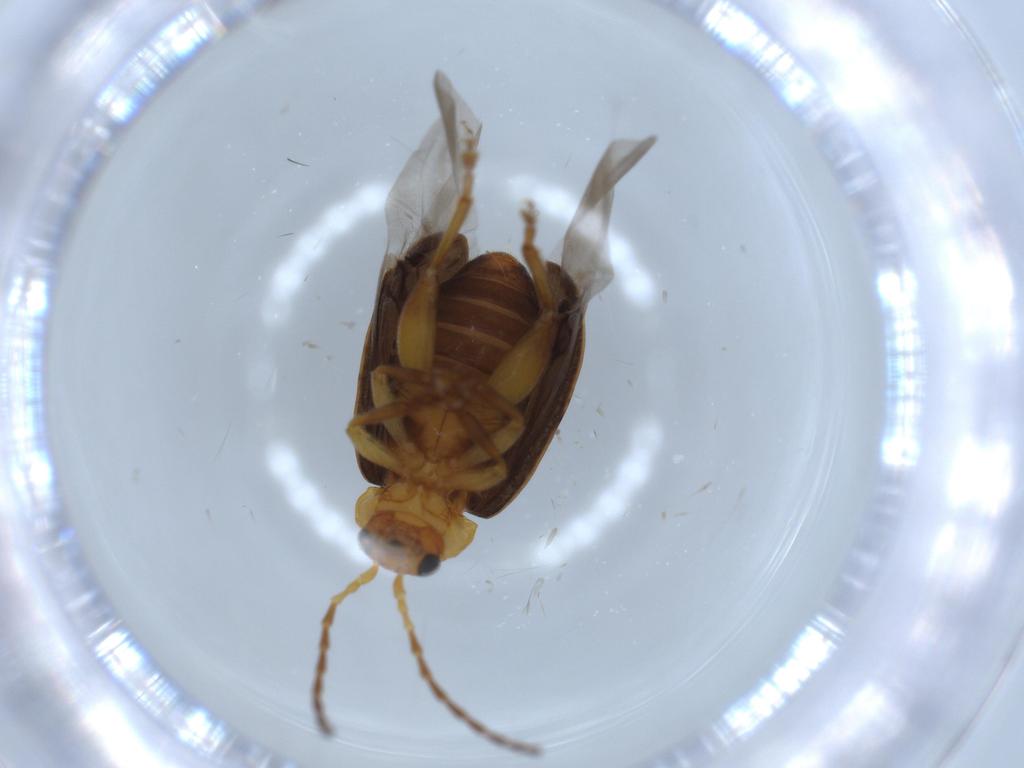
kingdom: Animalia
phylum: Arthropoda
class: Insecta
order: Coleoptera
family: Chrysomelidae
